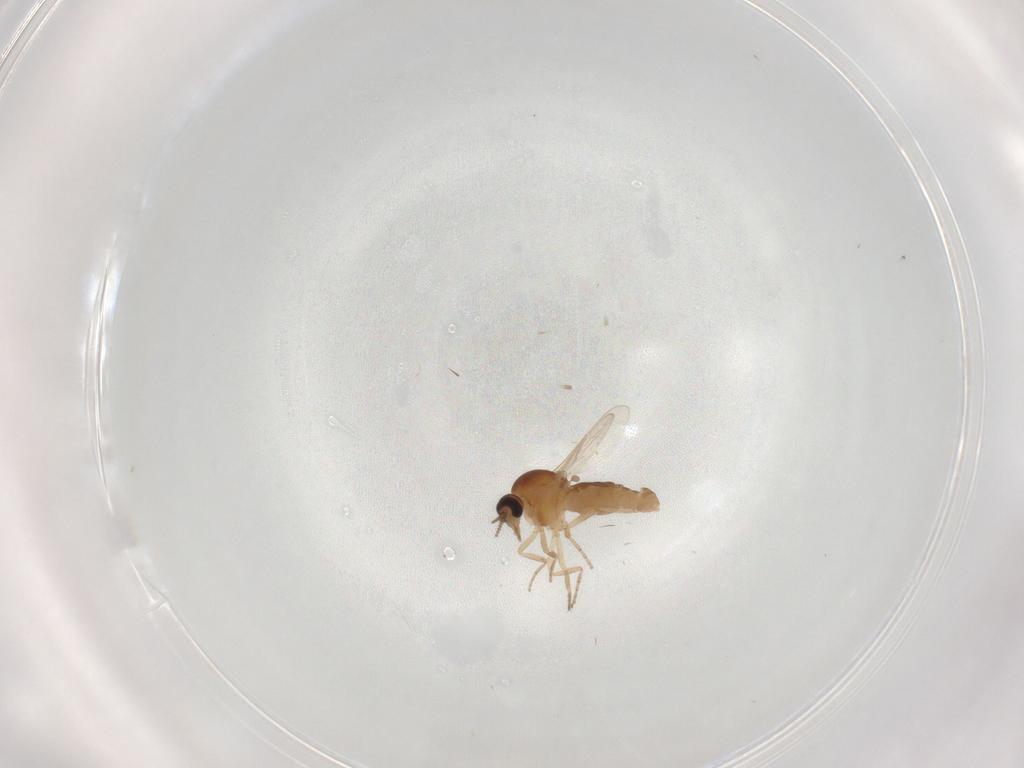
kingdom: Animalia
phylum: Arthropoda
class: Insecta
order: Diptera
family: Ceratopogonidae
